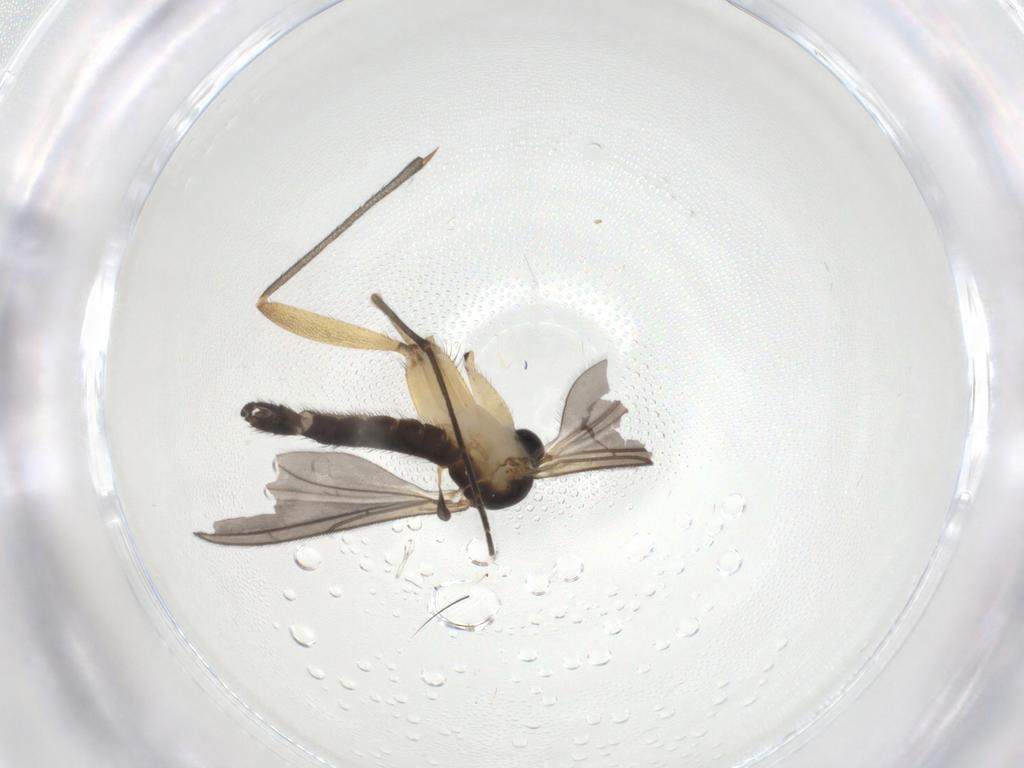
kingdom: Animalia
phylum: Arthropoda
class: Insecta
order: Diptera
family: Sciaridae
